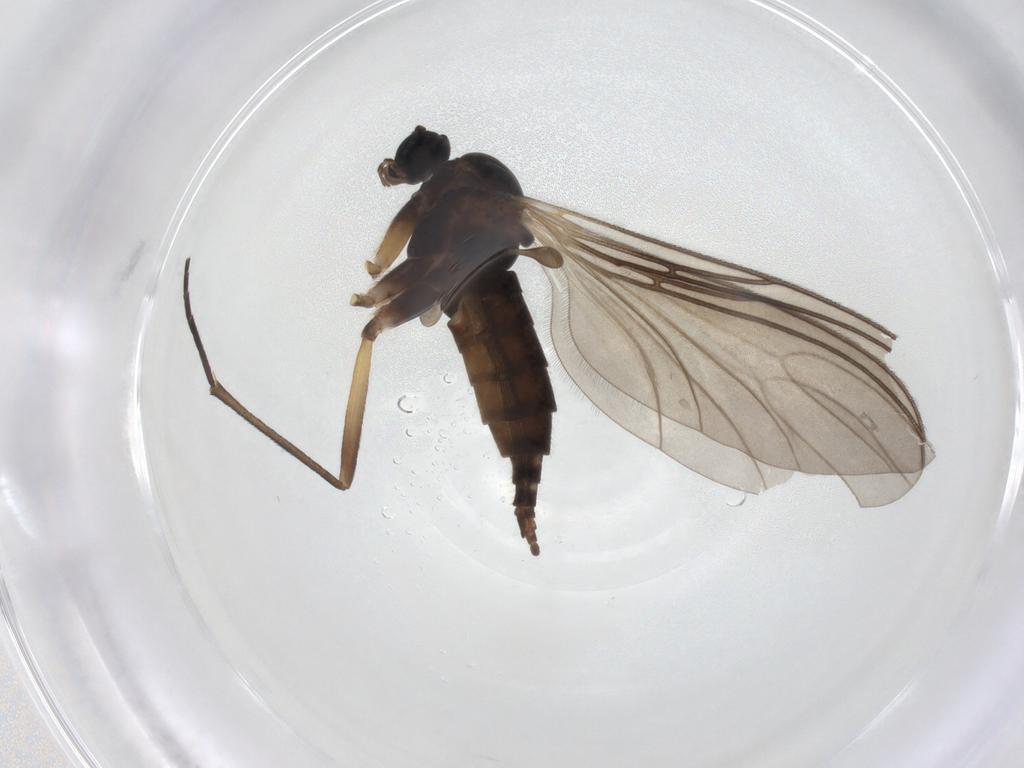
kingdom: Animalia
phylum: Arthropoda
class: Insecta
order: Diptera
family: Sciaridae
